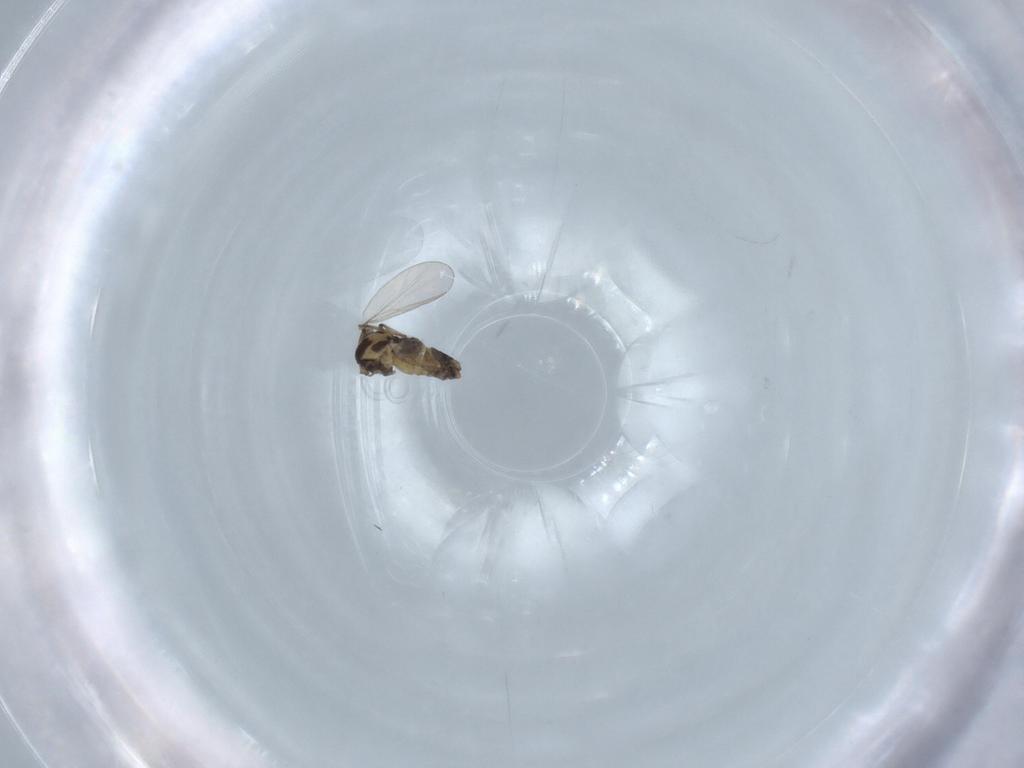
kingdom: Animalia
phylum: Arthropoda
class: Insecta
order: Diptera
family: Chironomidae
